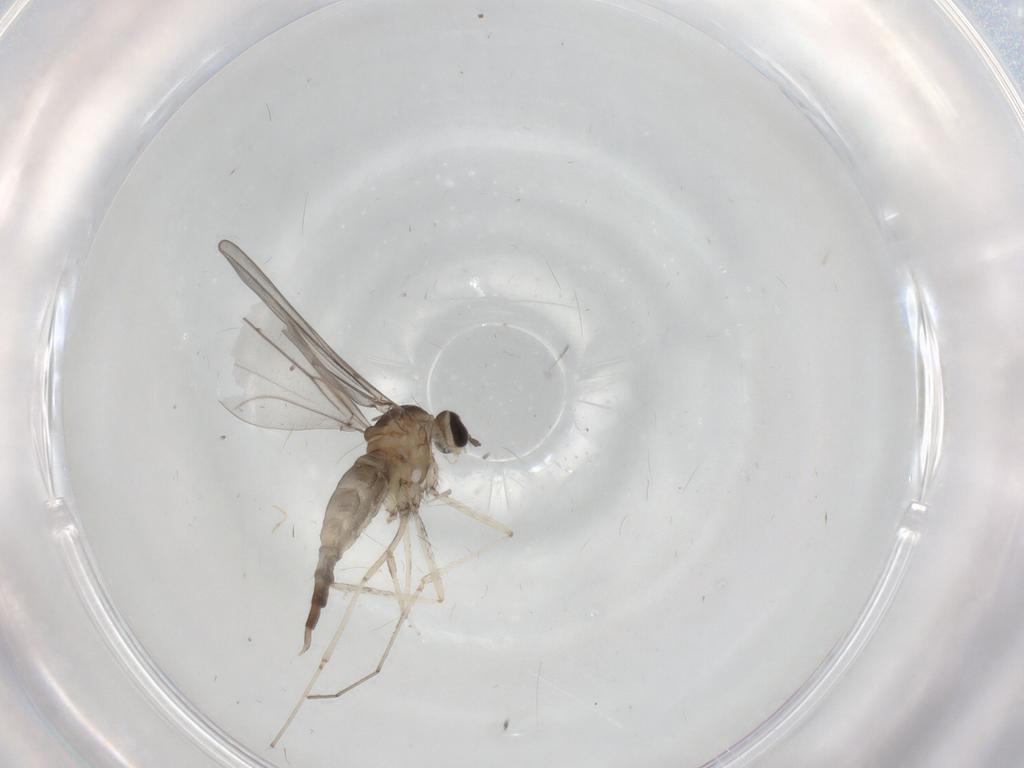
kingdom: Animalia
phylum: Arthropoda
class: Insecta
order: Diptera
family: Cecidomyiidae
